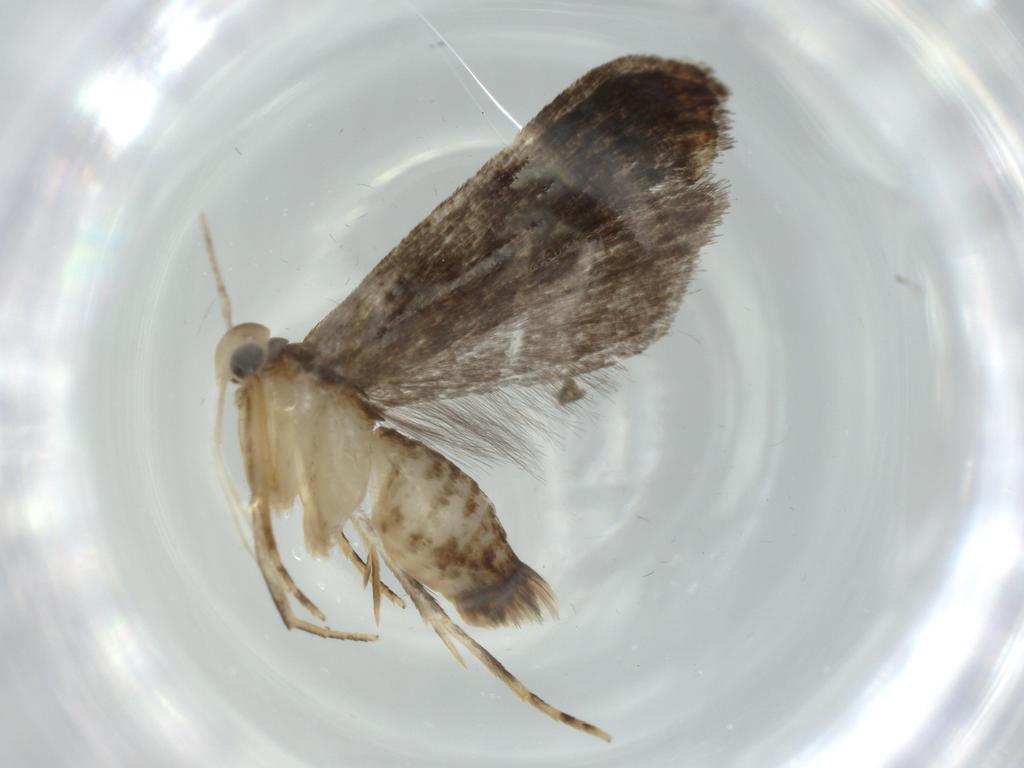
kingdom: Animalia
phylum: Arthropoda
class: Insecta
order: Lepidoptera
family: Coleophoridae
